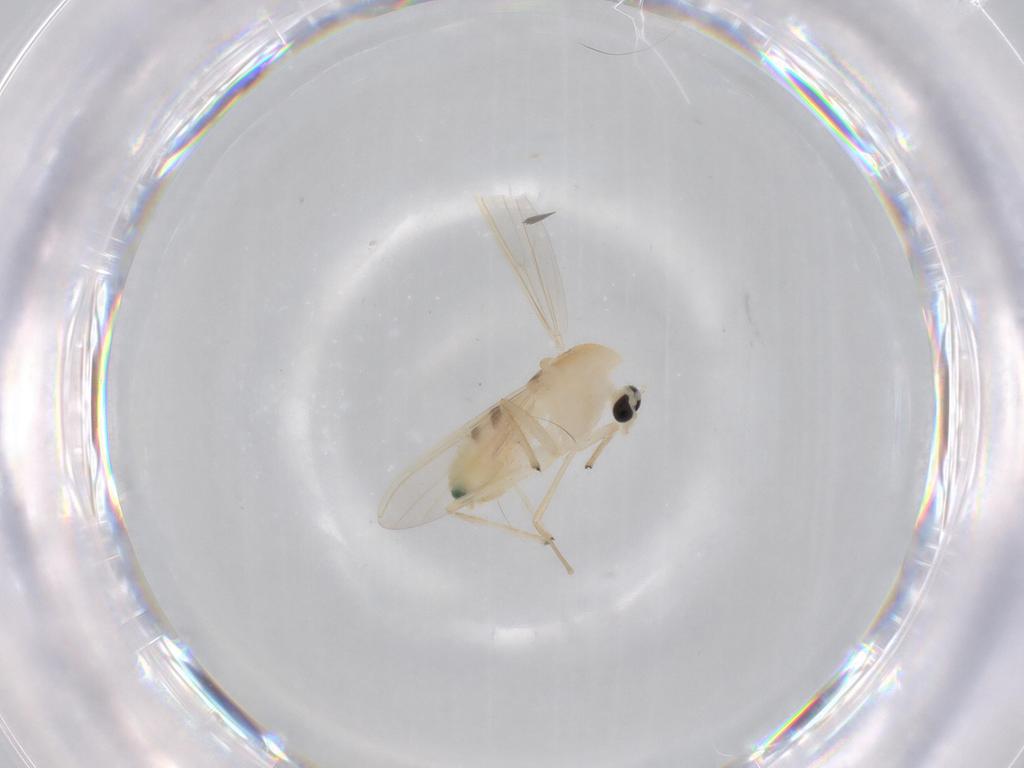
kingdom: Animalia
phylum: Arthropoda
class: Insecta
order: Diptera
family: Chironomidae
